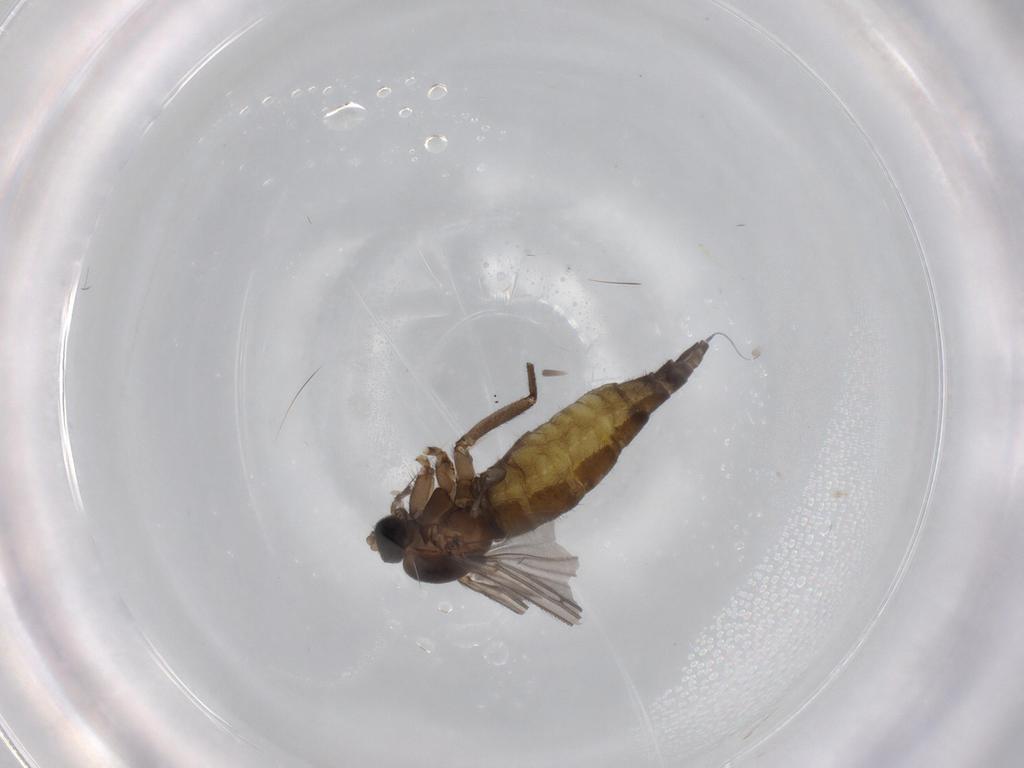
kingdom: Animalia
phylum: Arthropoda
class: Insecta
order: Diptera
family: Sciaridae
